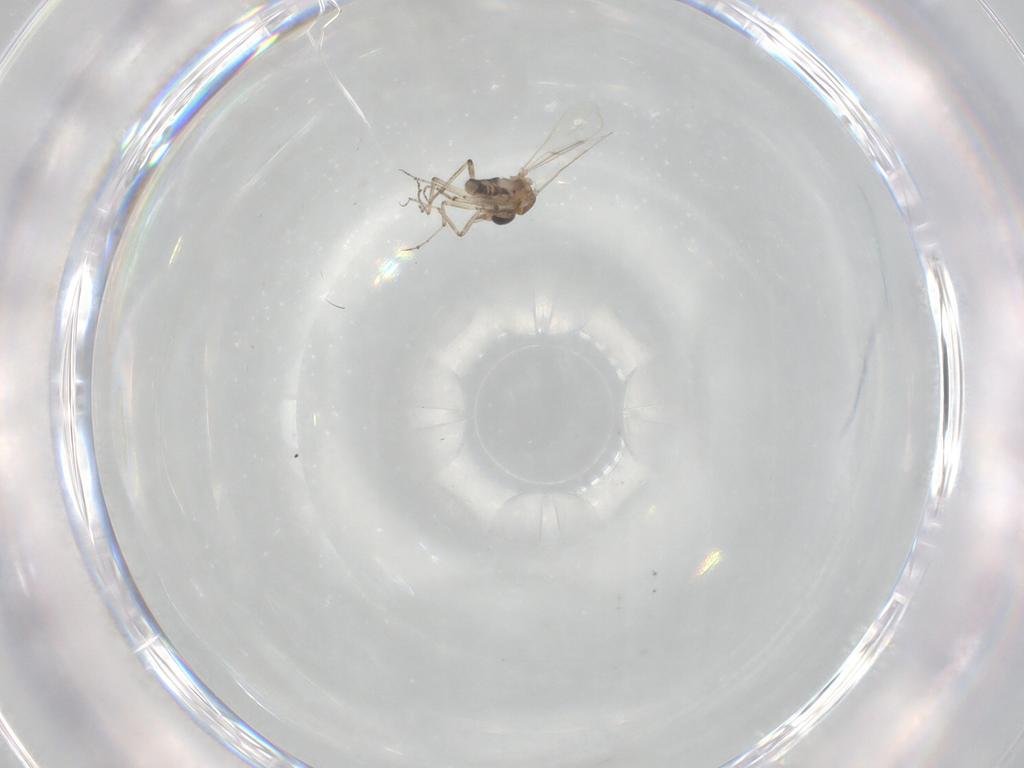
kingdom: Animalia
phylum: Arthropoda
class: Insecta
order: Diptera
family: Ceratopogonidae
